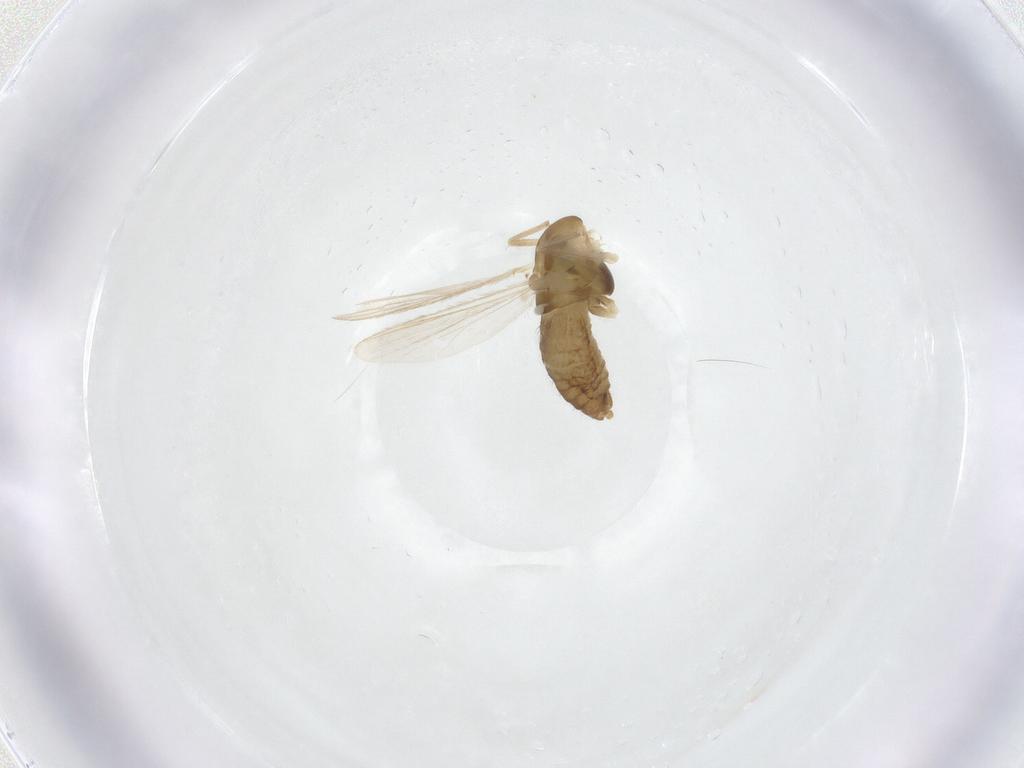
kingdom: Animalia
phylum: Arthropoda
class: Insecta
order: Diptera
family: Chironomidae
